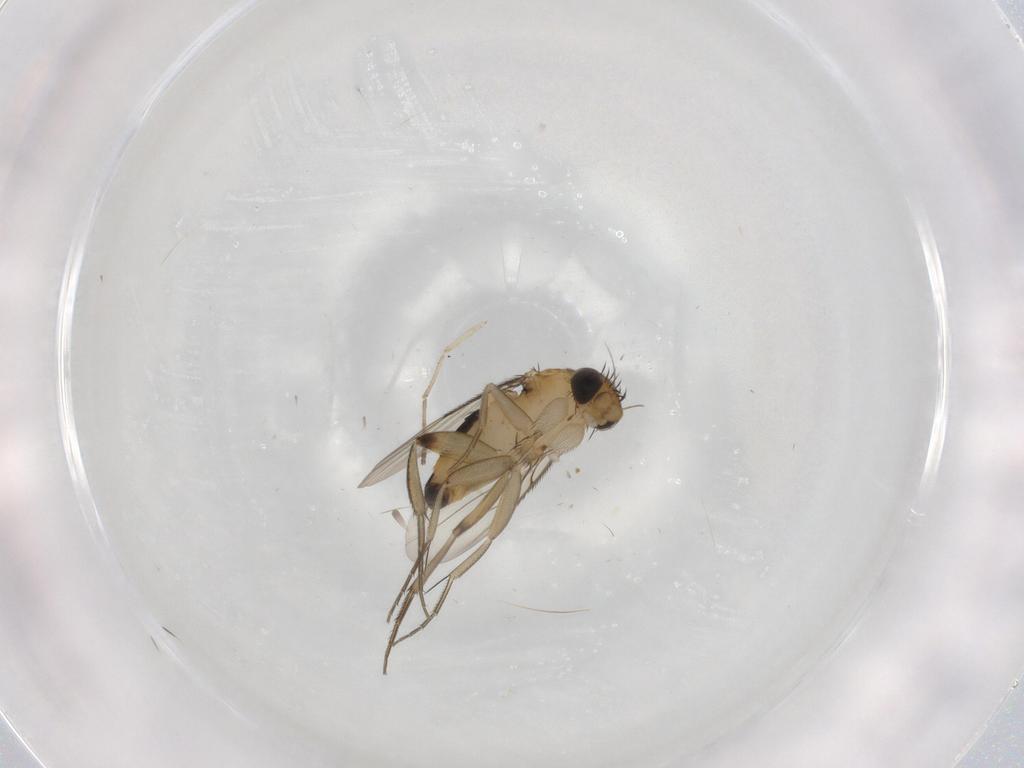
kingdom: Animalia
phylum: Arthropoda
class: Insecta
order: Diptera
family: Phoridae
